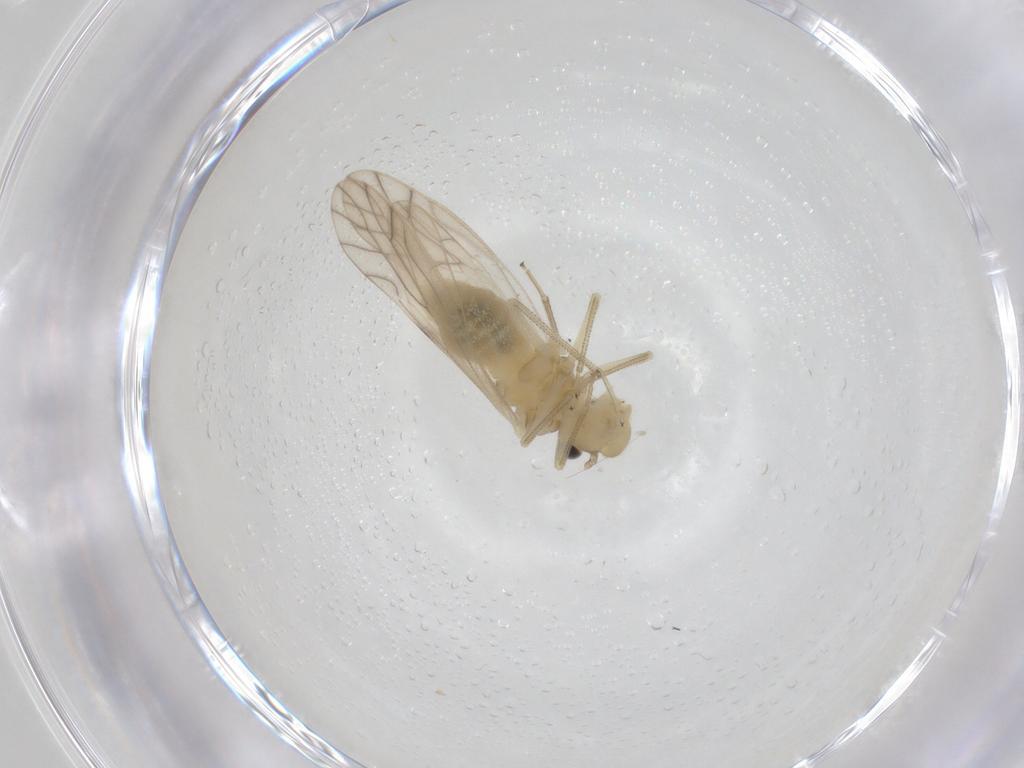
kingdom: Animalia
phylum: Arthropoda
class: Insecta
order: Psocodea
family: Caeciliusidae
